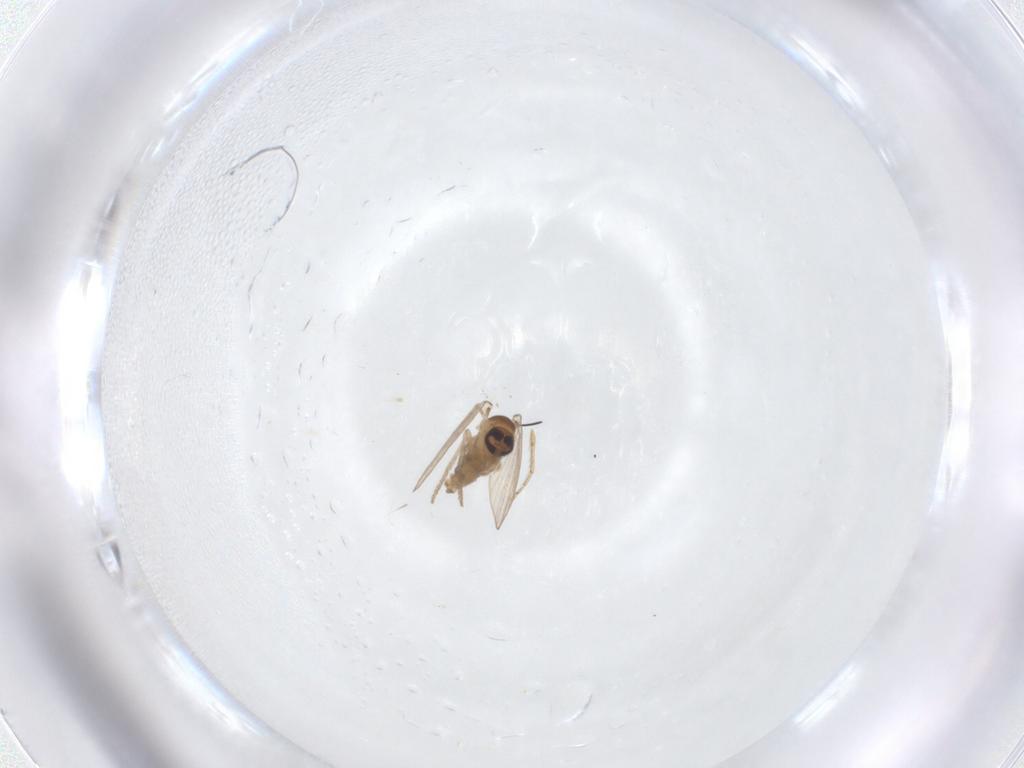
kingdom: Animalia
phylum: Arthropoda
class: Insecta
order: Diptera
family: Psychodidae
